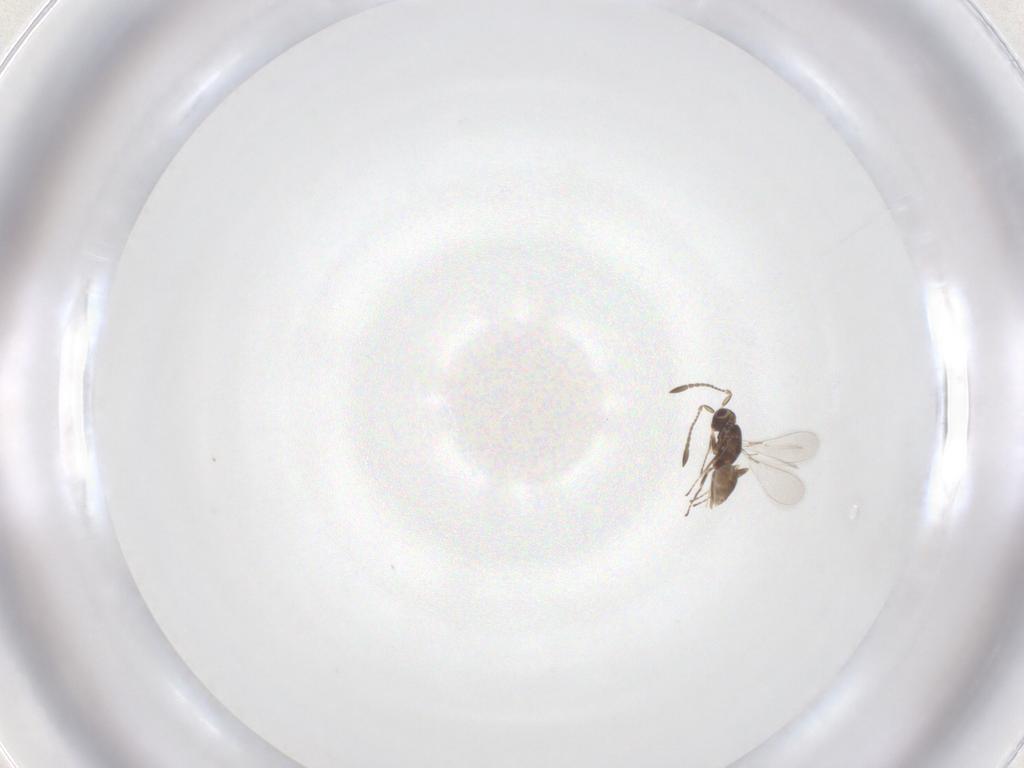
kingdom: Animalia
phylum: Arthropoda
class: Insecta
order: Hymenoptera
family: Mymaridae
